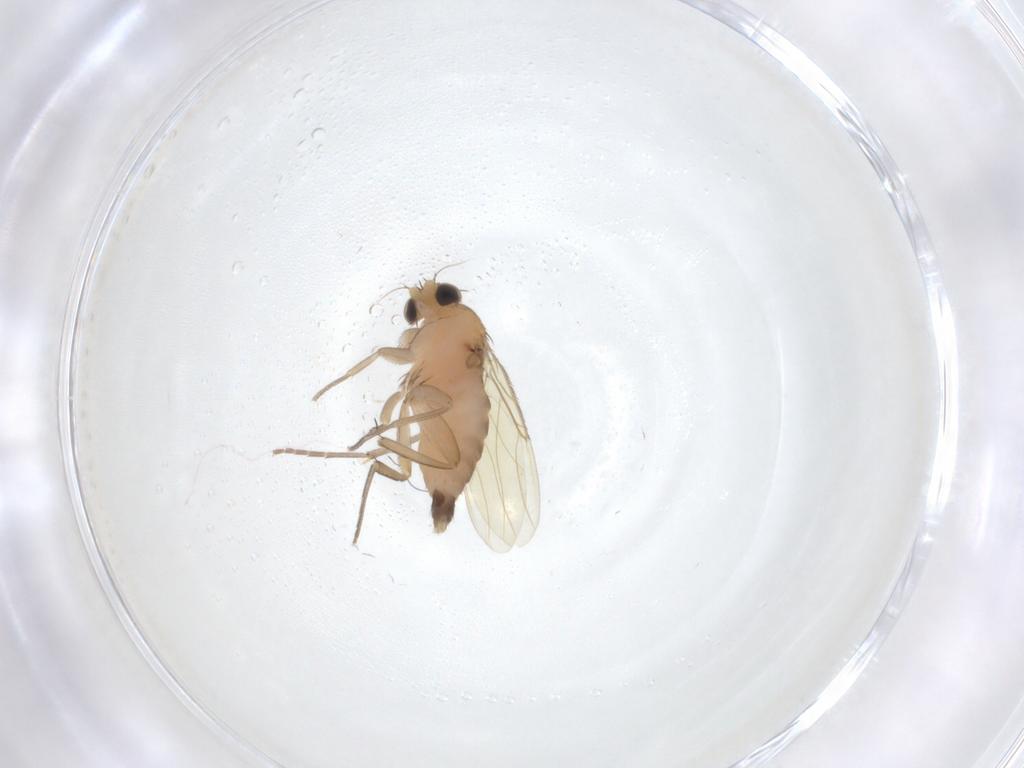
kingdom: Animalia
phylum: Arthropoda
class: Insecta
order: Diptera
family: Phoridae
